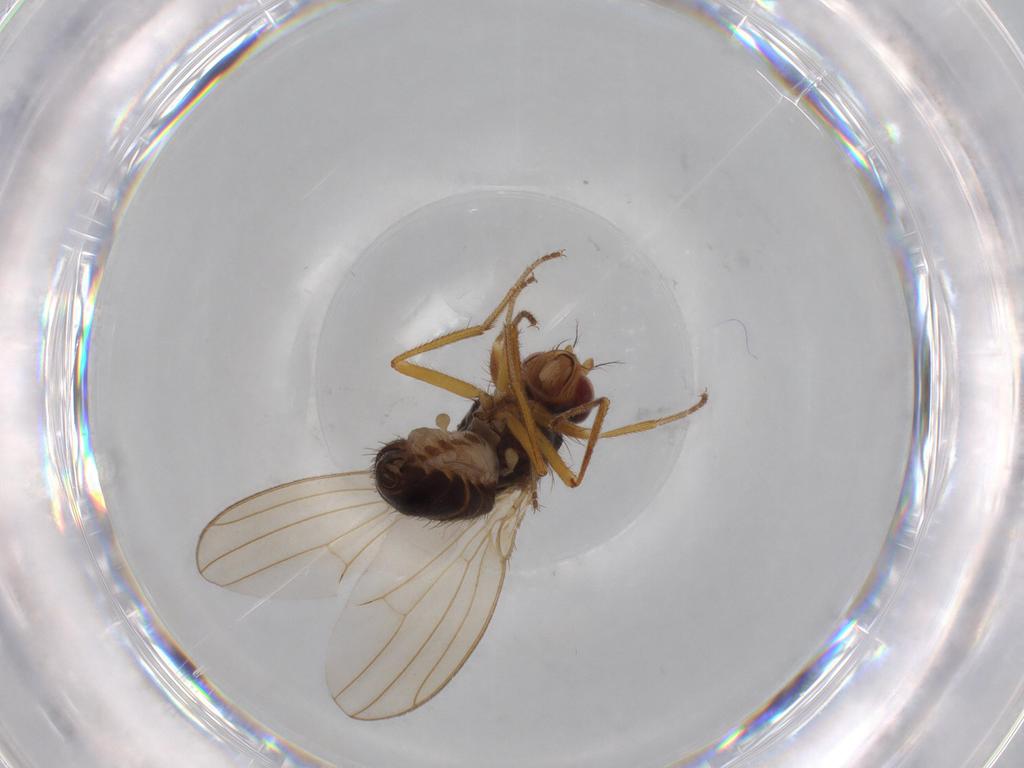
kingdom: Animalia
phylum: Arthropoda
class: Insecta
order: Diptera
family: Drosophilidae
